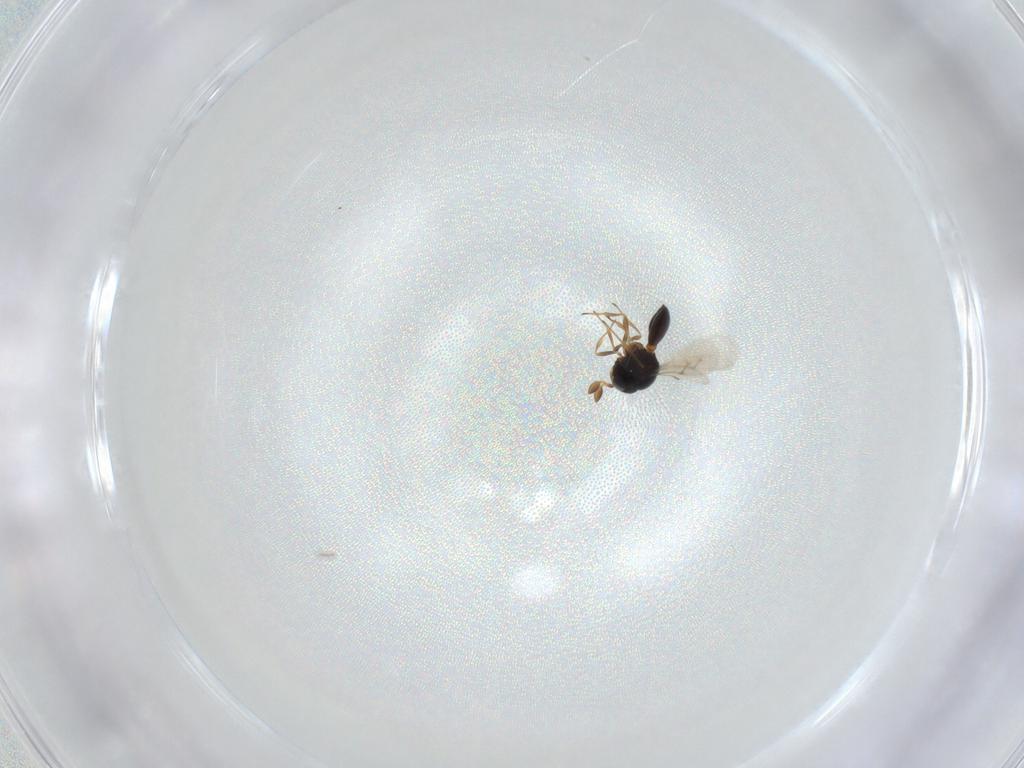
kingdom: Animalia
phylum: Arthropoda
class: Insecta
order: Hymenoptera
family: Scelionidae
